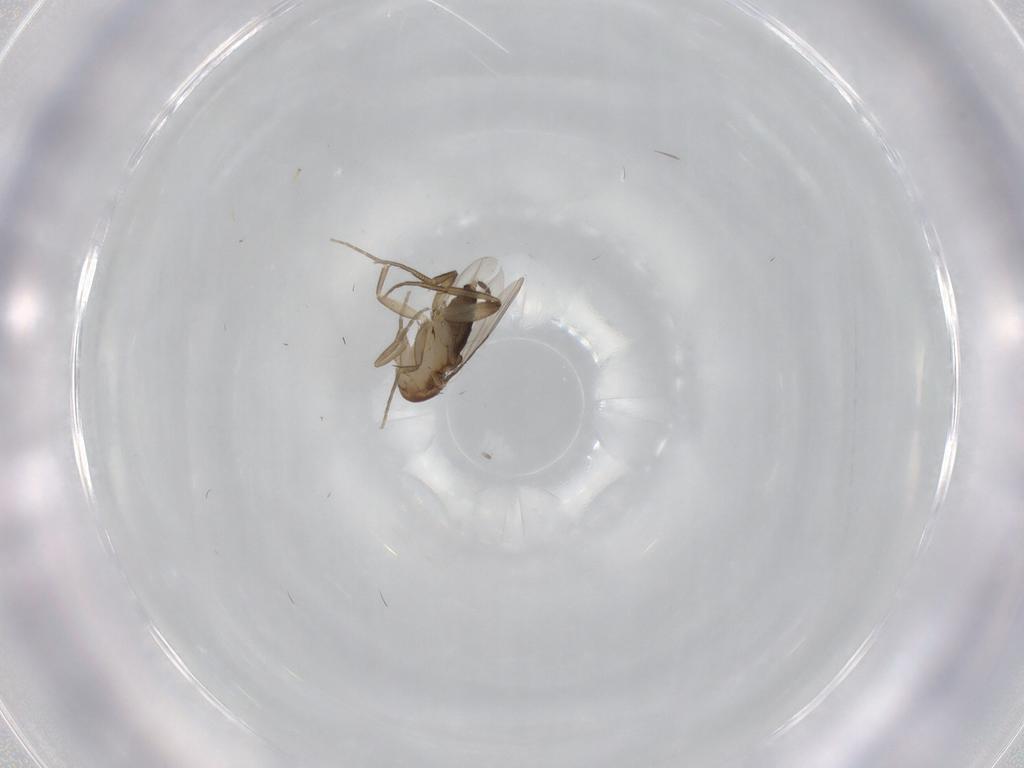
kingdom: Animalia
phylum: Arthropoda
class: Insecta
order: Diptera
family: Phoridae
